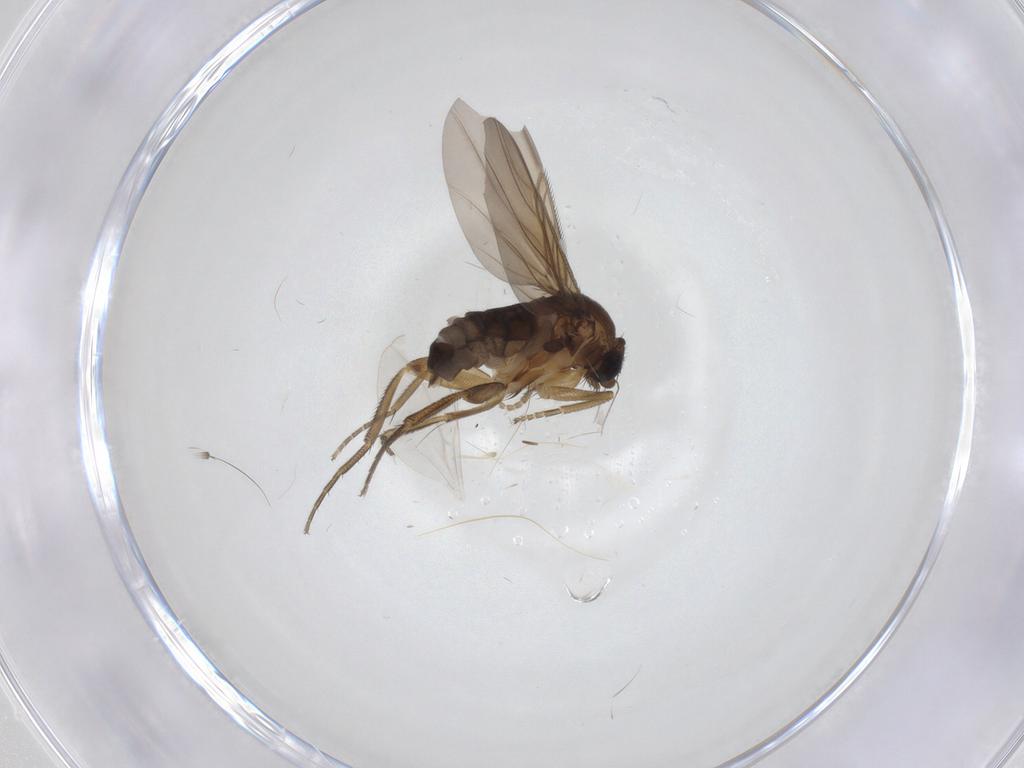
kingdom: Animalia
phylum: Arthropoda
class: Insecta
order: Diptera
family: Phoridae
